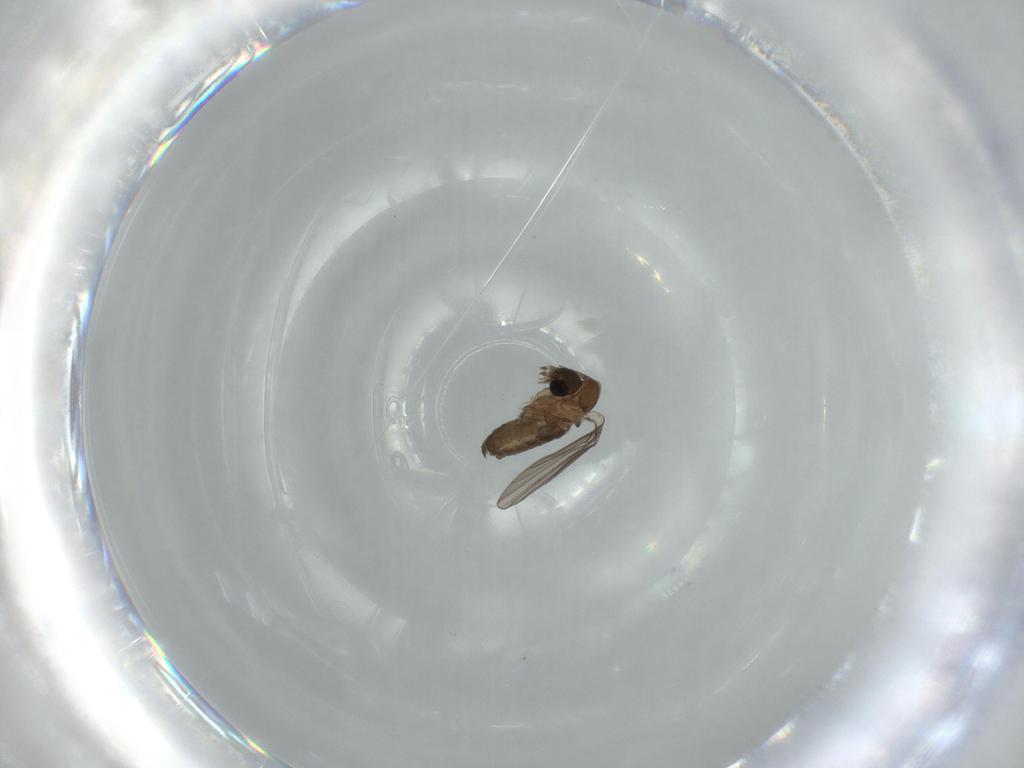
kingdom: Animalia
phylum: Arthropoda
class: Insecta
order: Diptera
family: Psychodidae
